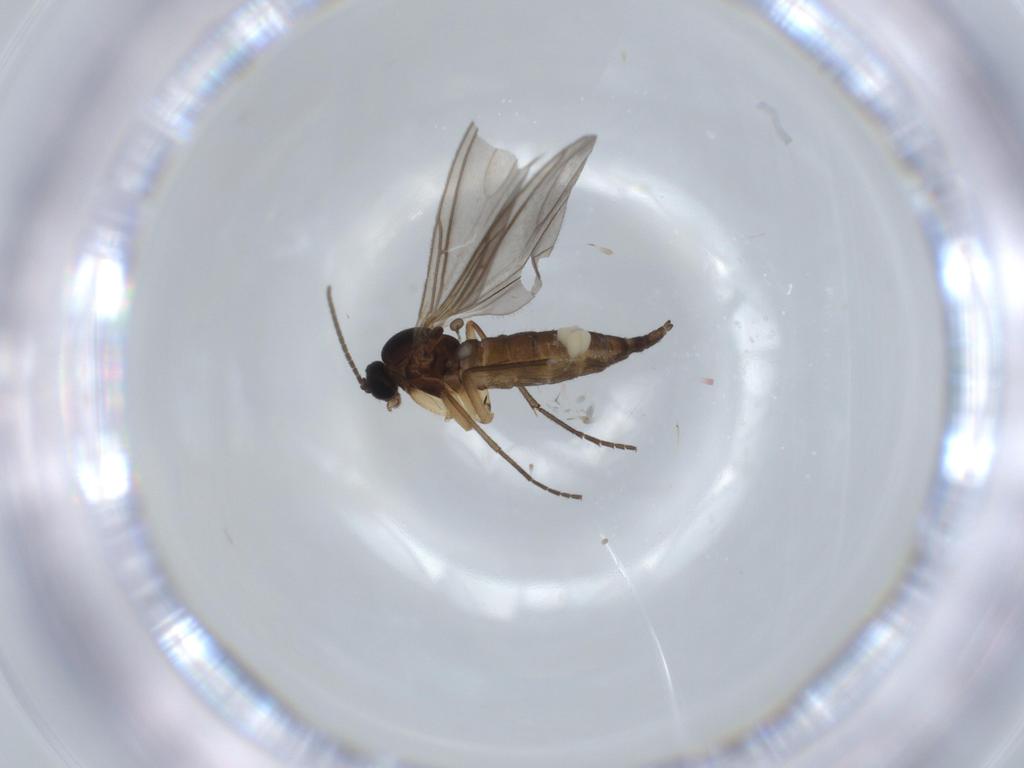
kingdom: Animalia
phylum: Arthropoda
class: Insecta
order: Diptera
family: Sciaridae
